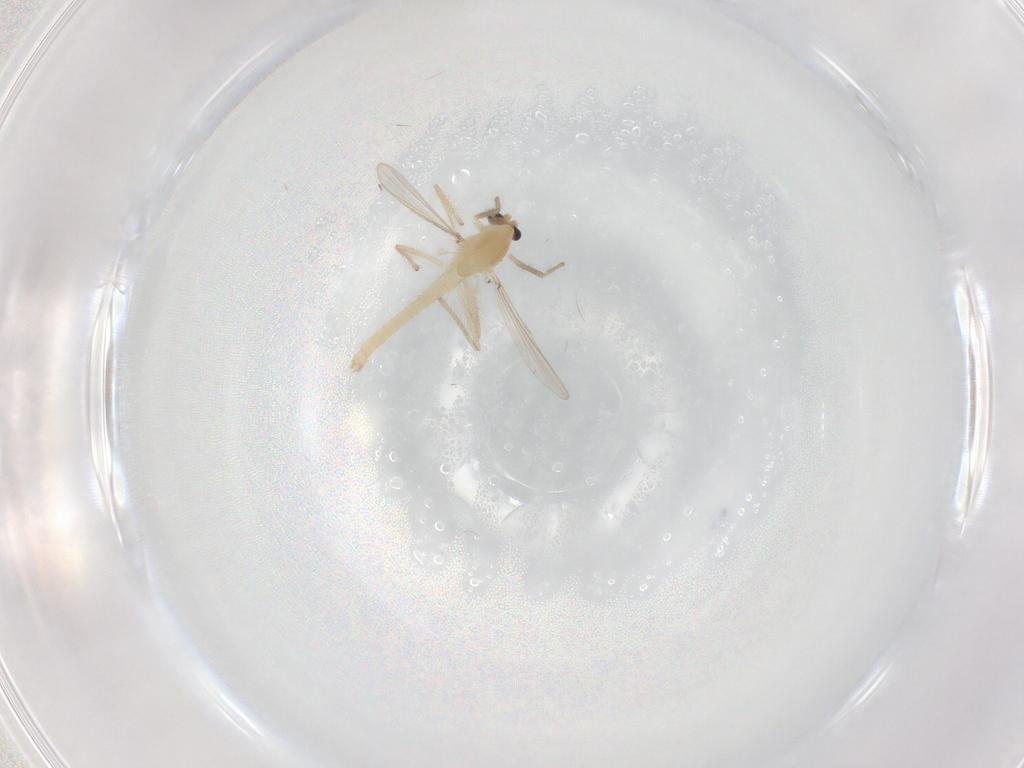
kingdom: Animalia
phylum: Arthropoda
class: Insecta
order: Diptera
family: Chironomidae
